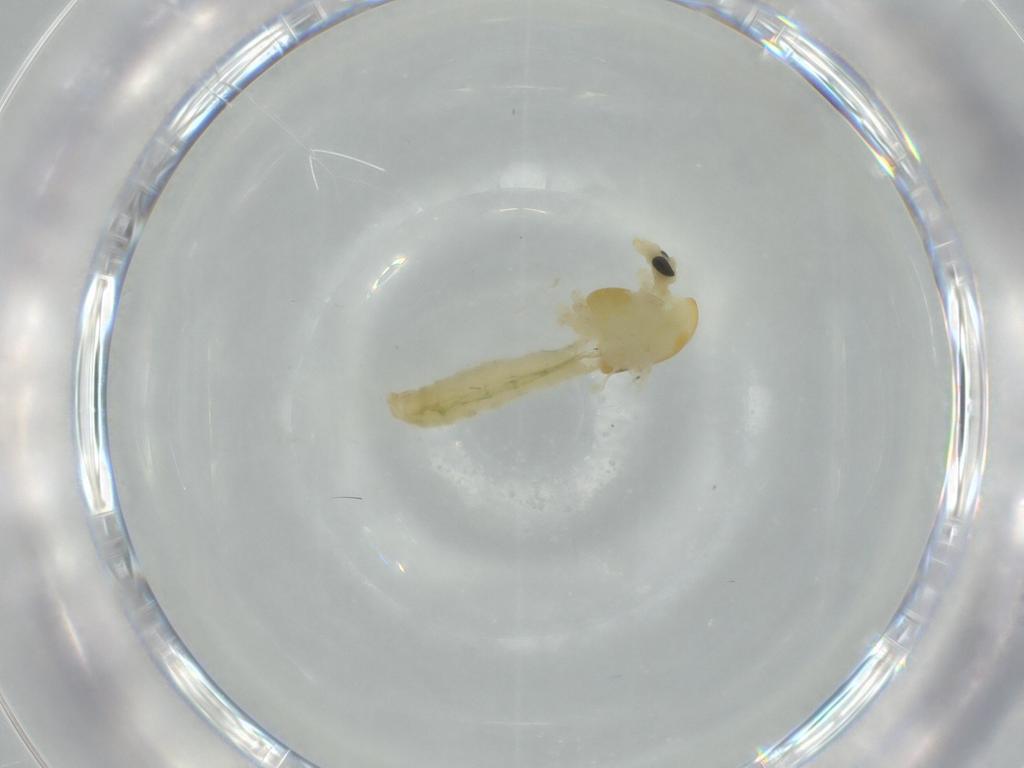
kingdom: Animalia
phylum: Arthropoda
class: Insecta
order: Diptera
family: Chironomidae
